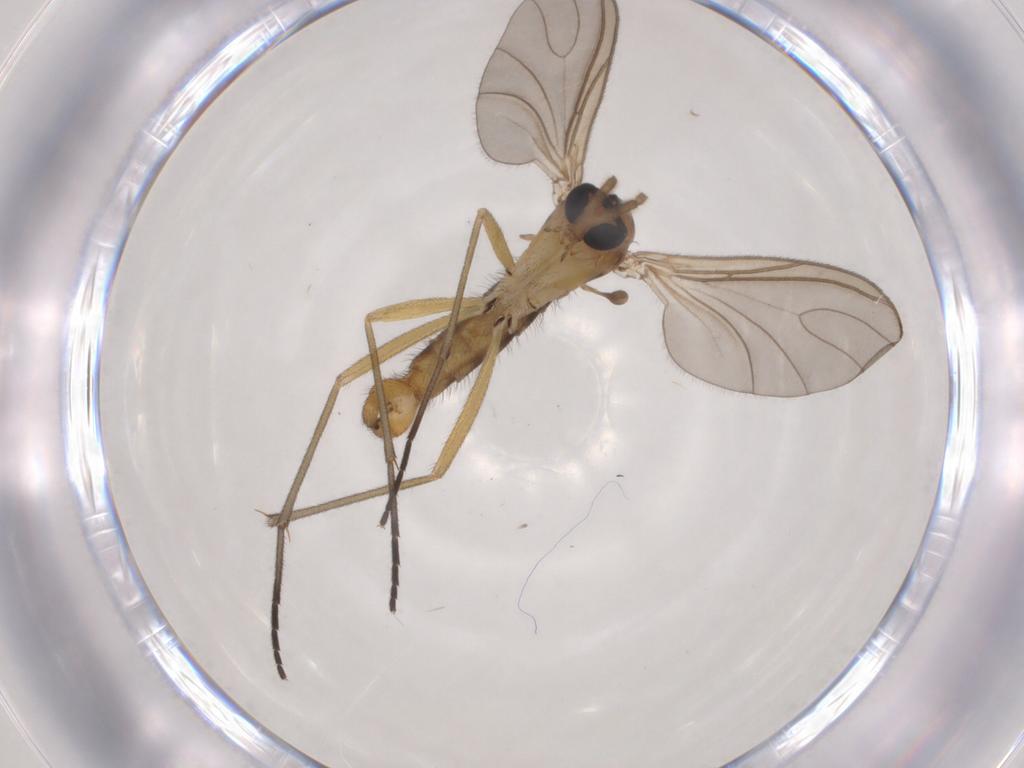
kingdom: Animalia
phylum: Arthropoda
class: Insecta
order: Diptera
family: Sciaridae
